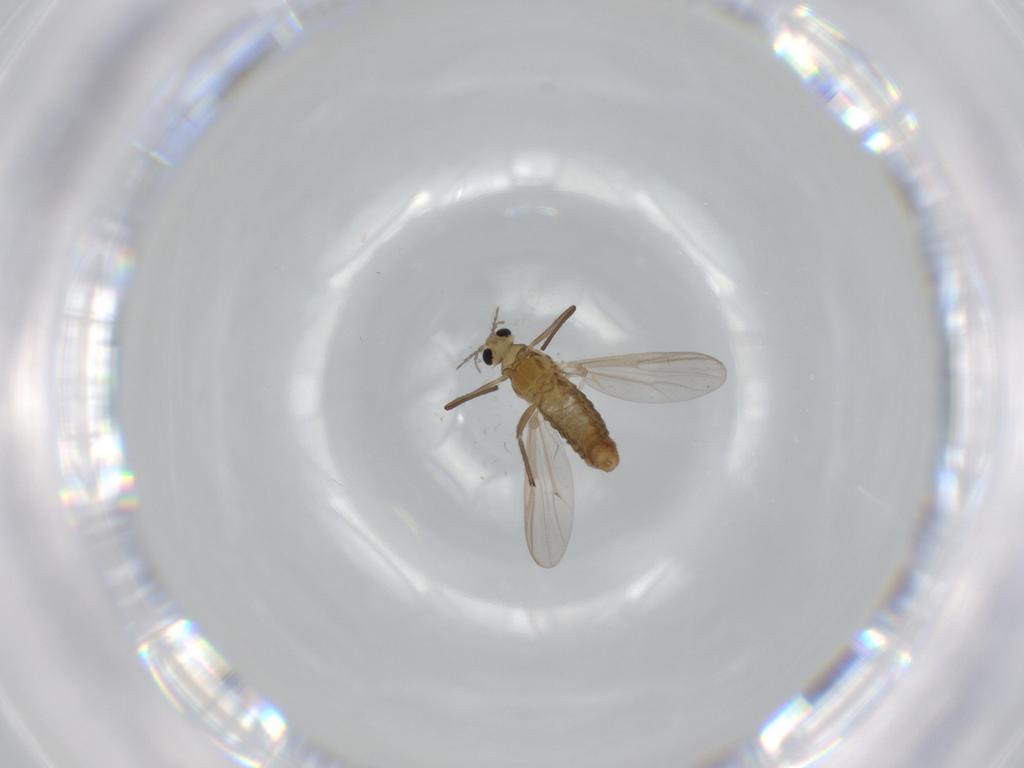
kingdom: Animalia
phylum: Arthropoda
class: Insecta
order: Diptera
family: Chironomidae
